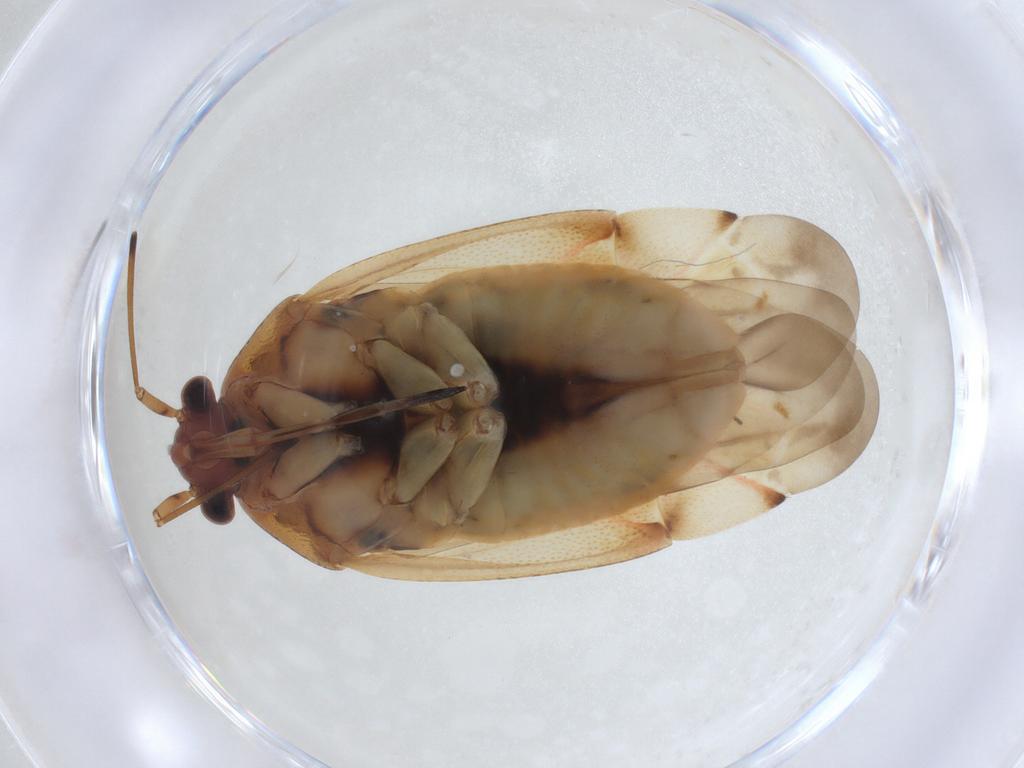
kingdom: Animalia
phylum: Arthropoda
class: Insecta
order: Hemiptera
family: Miridae
